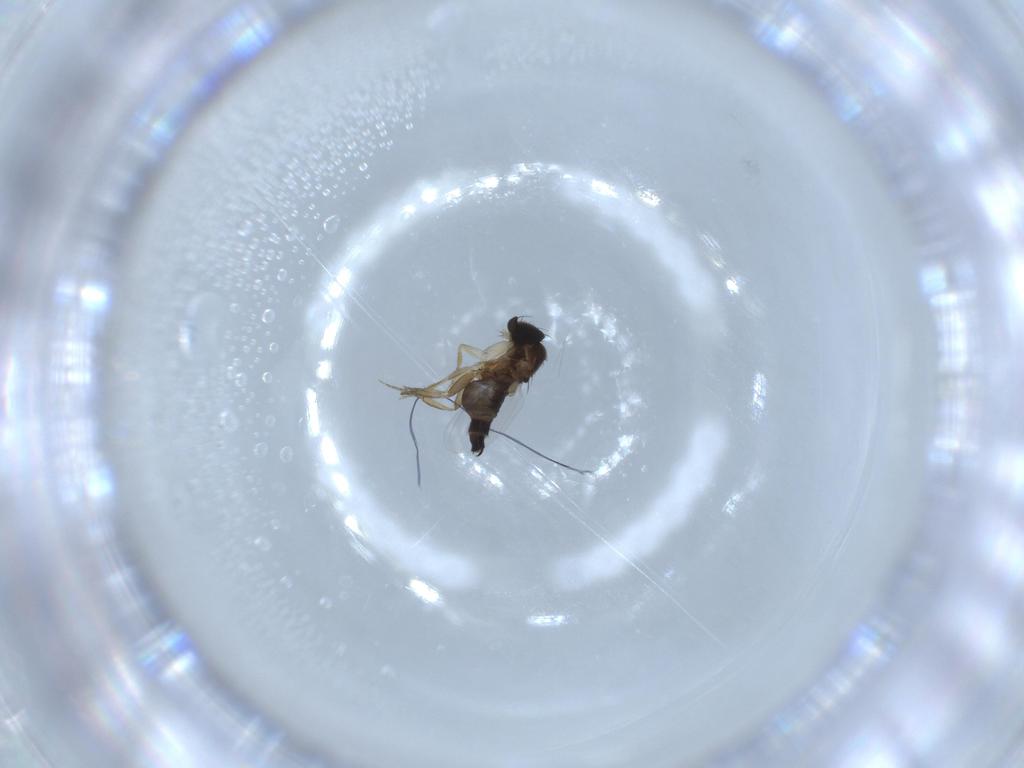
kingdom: Animalia
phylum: Arthropoda
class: Insecta
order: Diptera
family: Phoridae
